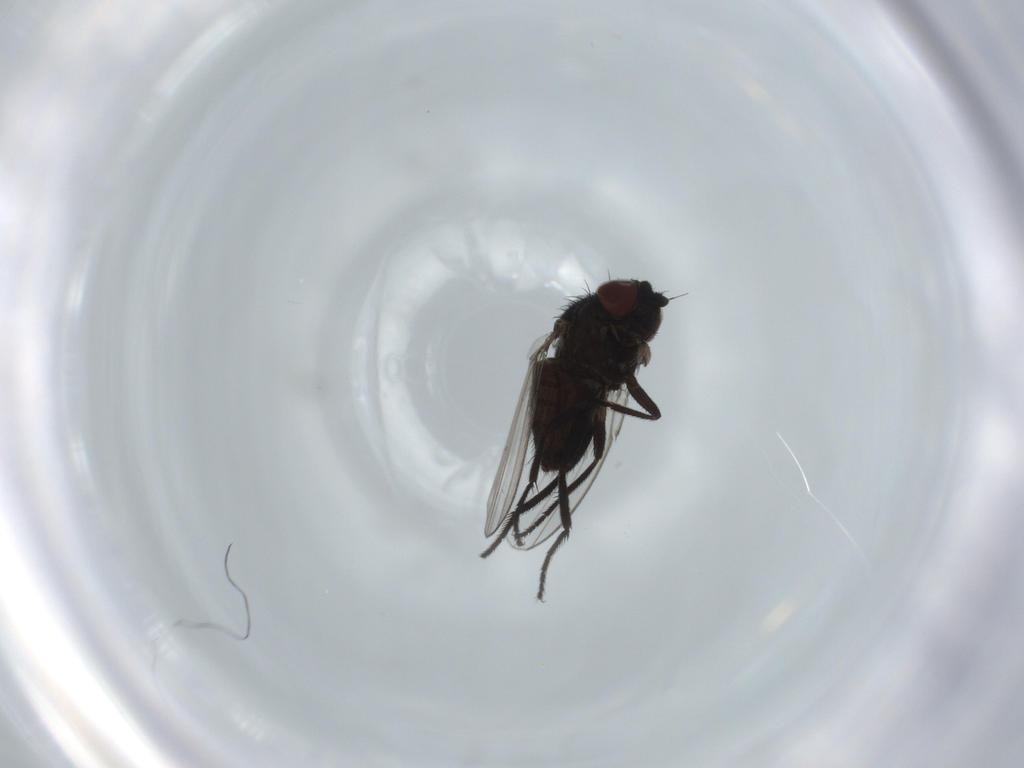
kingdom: Animalia
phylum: Arthropoda
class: Insecta
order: Diptera
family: Milichiidae
